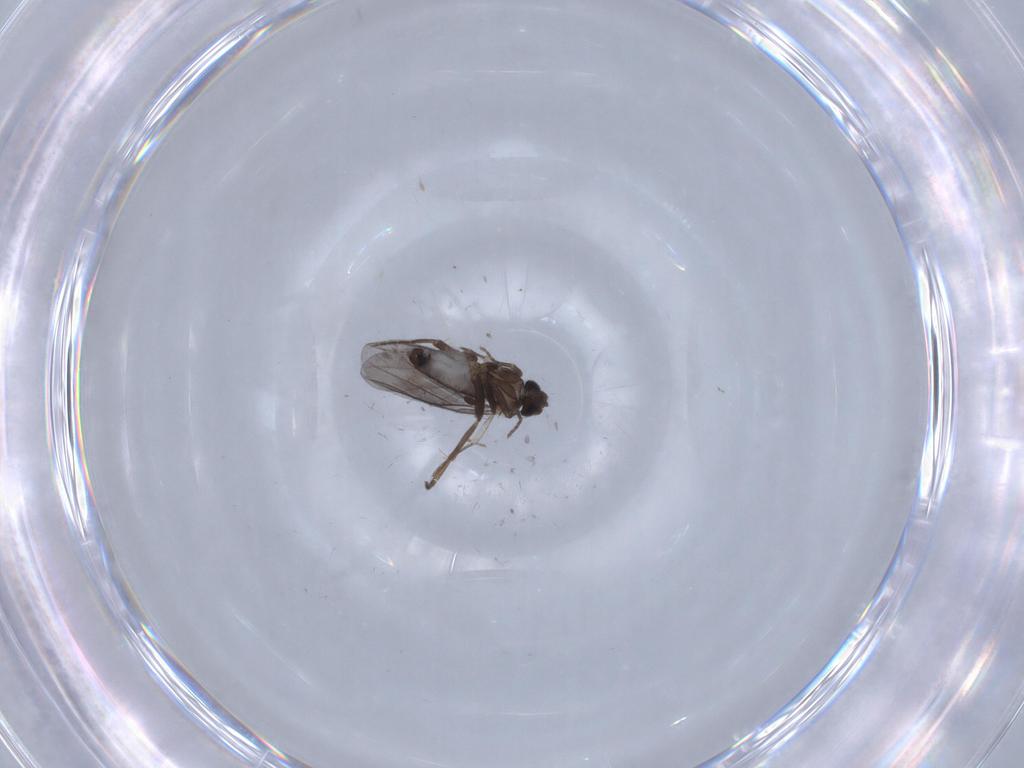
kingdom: Animalia
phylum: Arthropoda
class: Insecta
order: Diptera
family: Phoridae
